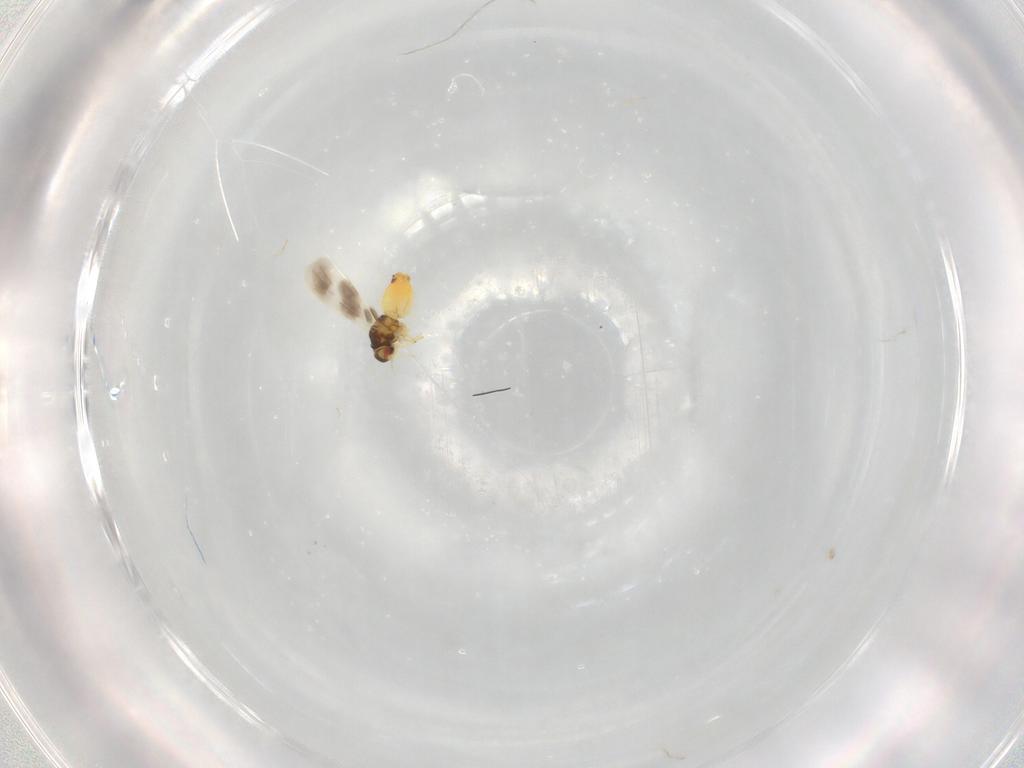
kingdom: Animalia
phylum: Arthropoda
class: Insecta
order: Hemiptera
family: Aleyrodidae
